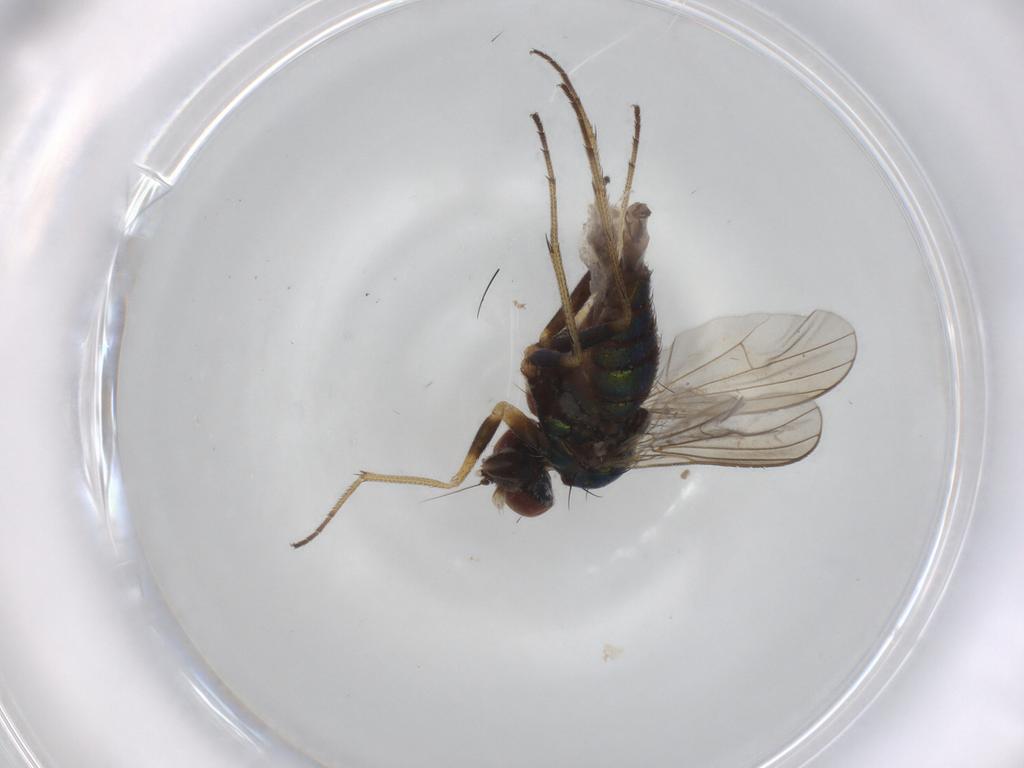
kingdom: Animalia
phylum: Arthropoda
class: Insecta
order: Diptera
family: Dolichopodidae
